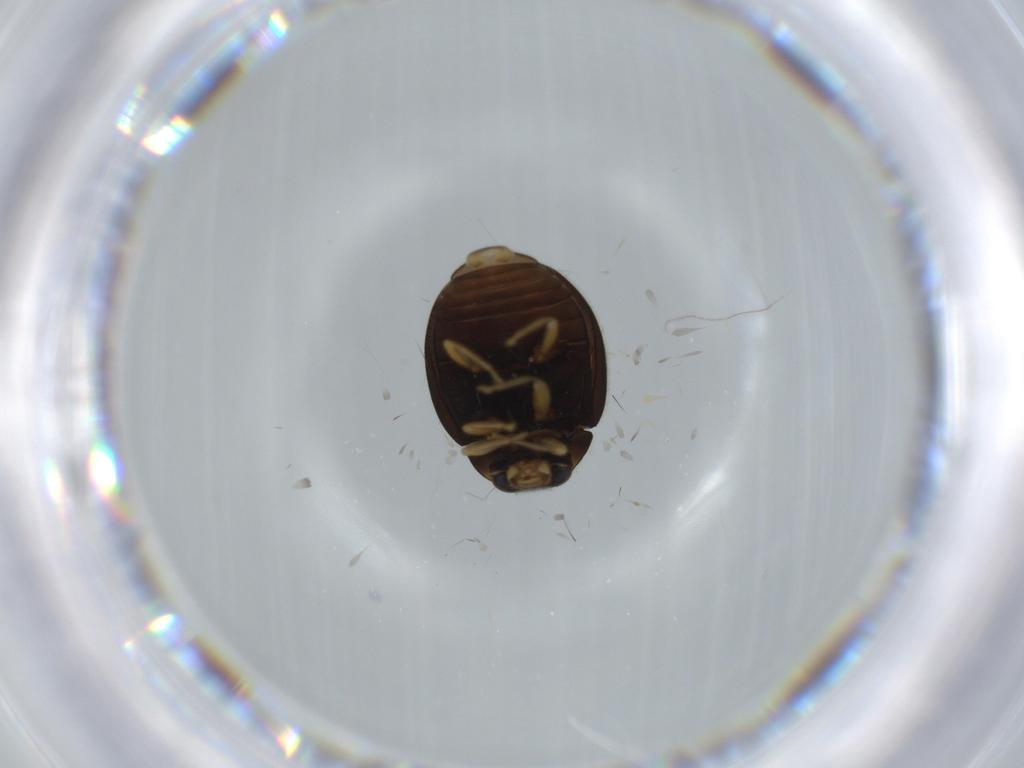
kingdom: Animalia
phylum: Arthropoda
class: Insecta
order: Coleoptera
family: Coccinellidae
